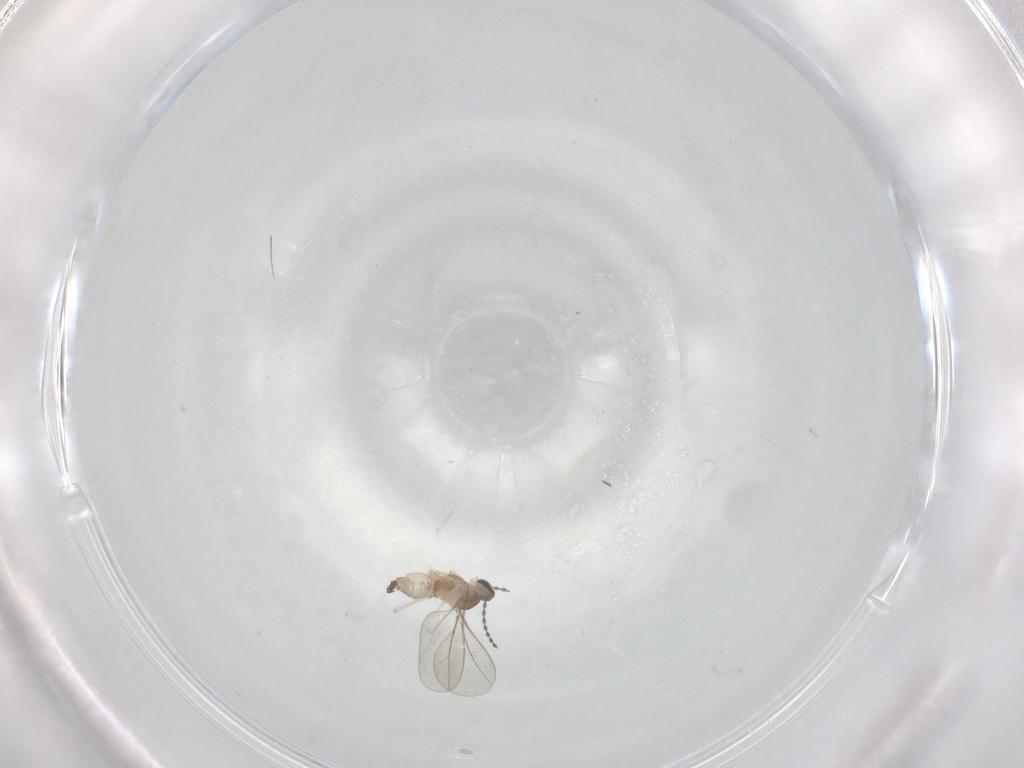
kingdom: Animalia
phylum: Arthropoda
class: Insecta
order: Diptera
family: Cecidomyiidae
